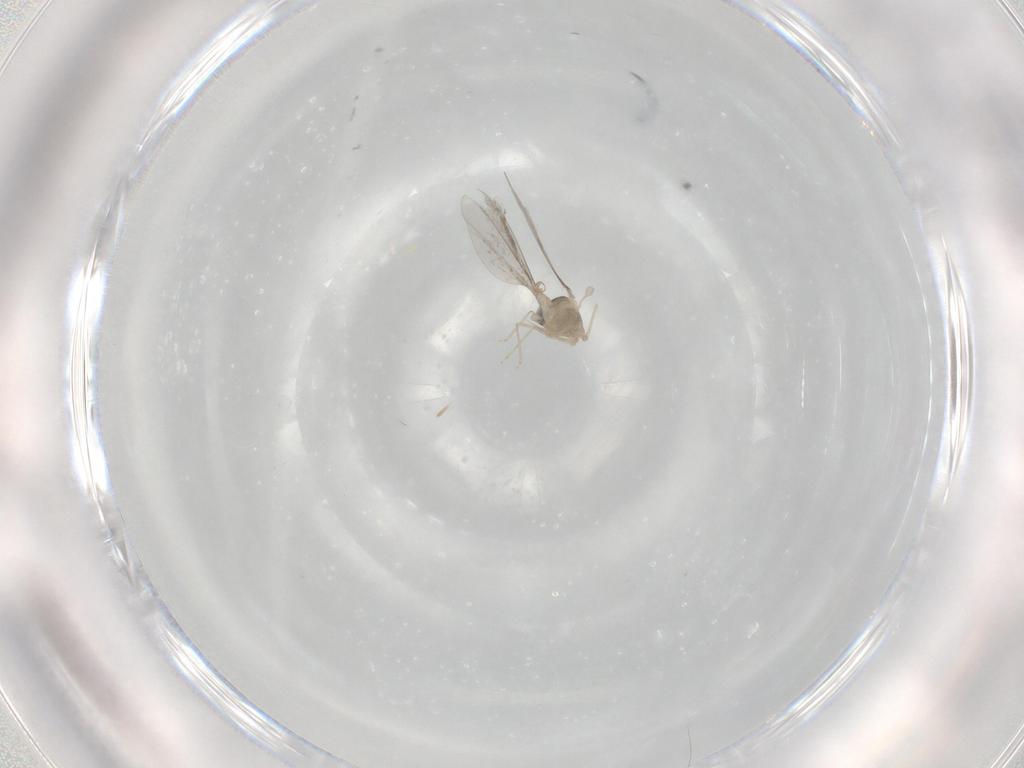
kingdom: Animalia
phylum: Arthropoda
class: Insecta
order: Diptera
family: Cecidomyiidae
